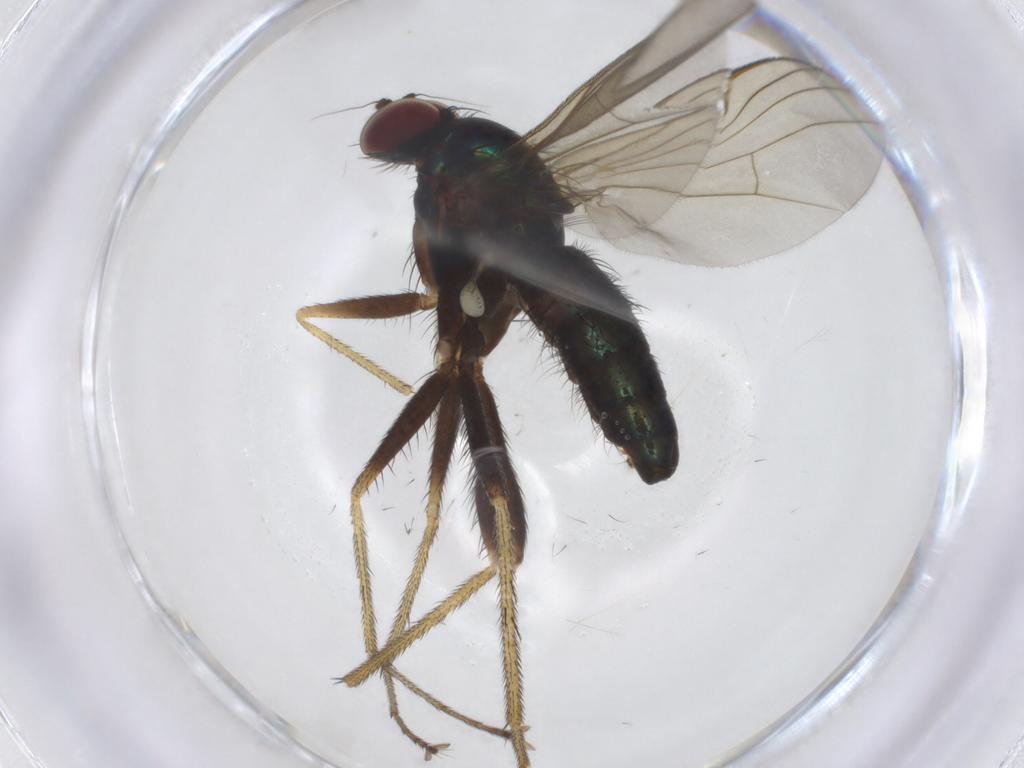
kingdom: Animalia
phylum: Arthropoda
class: Insecta
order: Diptera
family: Dolichopodidae
